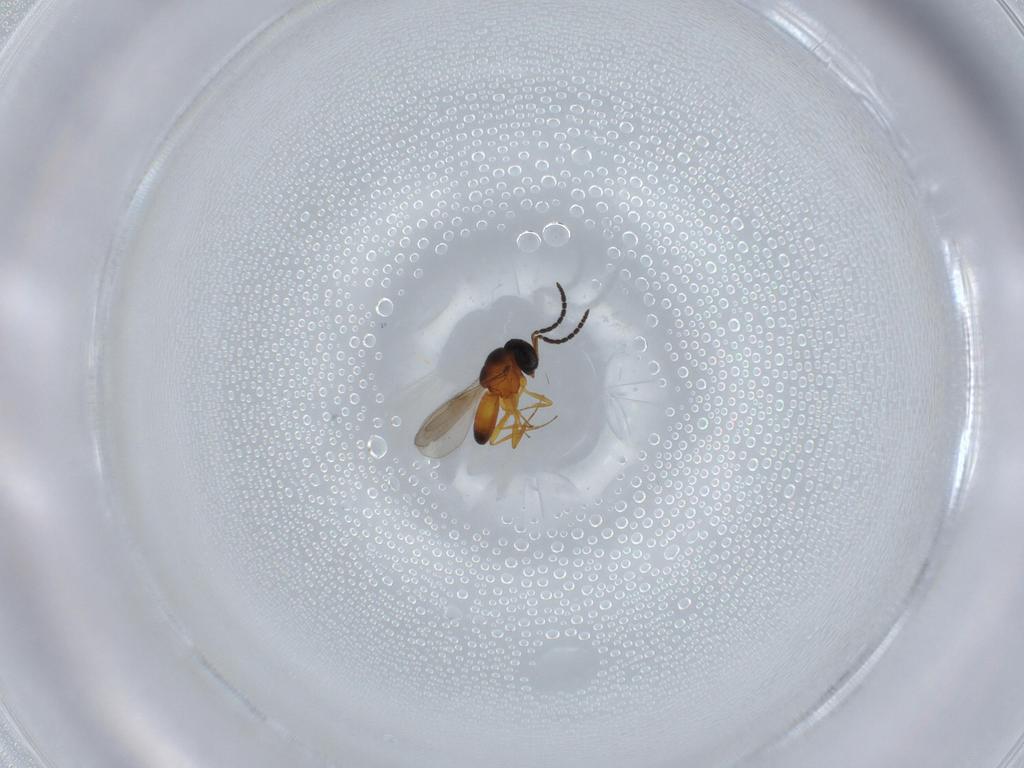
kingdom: Animalia
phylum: Arthropoda
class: Insecta
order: Hymenoptera
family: Scelionidae
